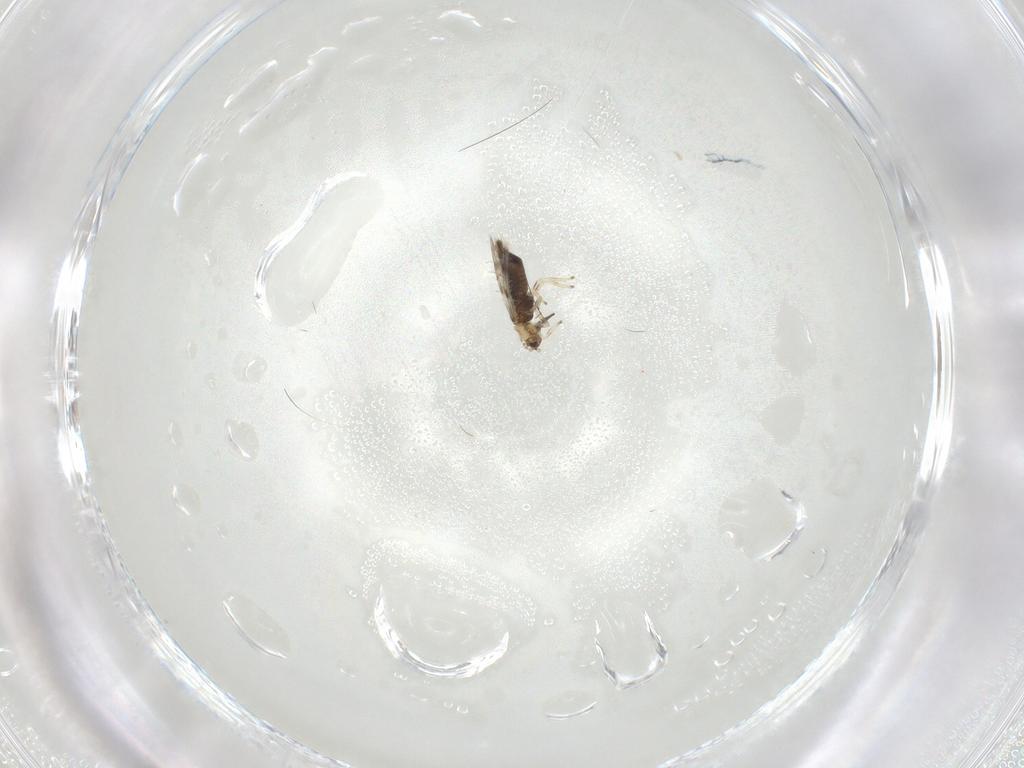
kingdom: Animalia
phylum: Arthropoda
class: Insecta
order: Thysanoptera
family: Thripidae
